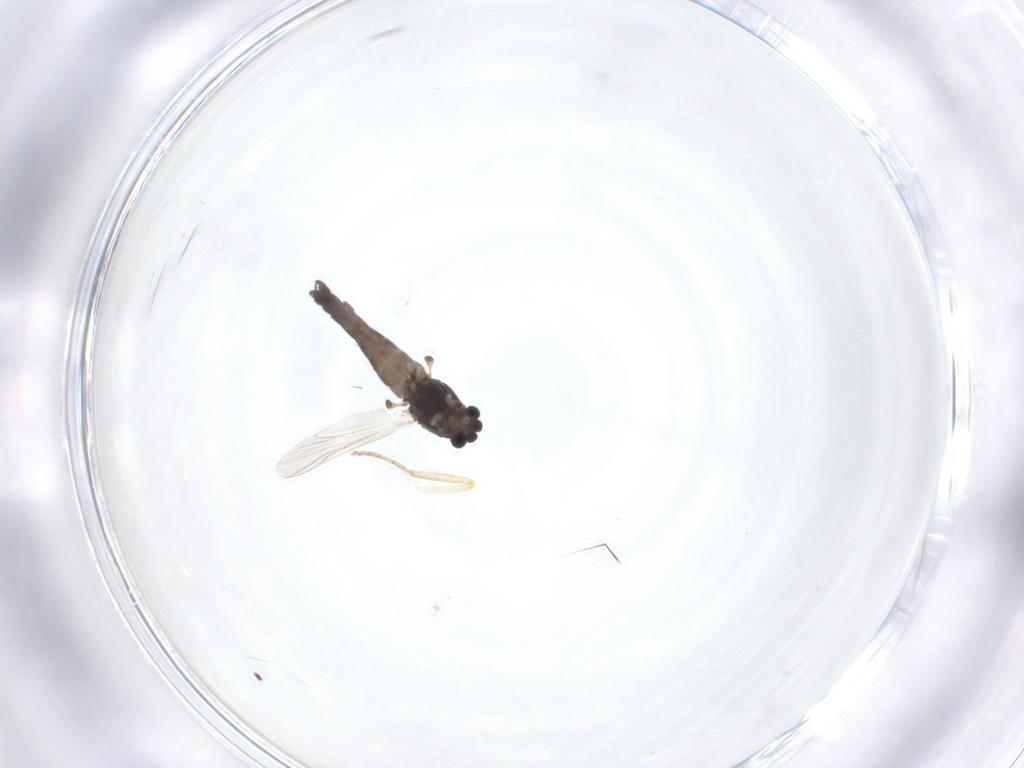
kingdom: Animalia
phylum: Arthropoda
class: Insecta
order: Diptera
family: Chironomidae
